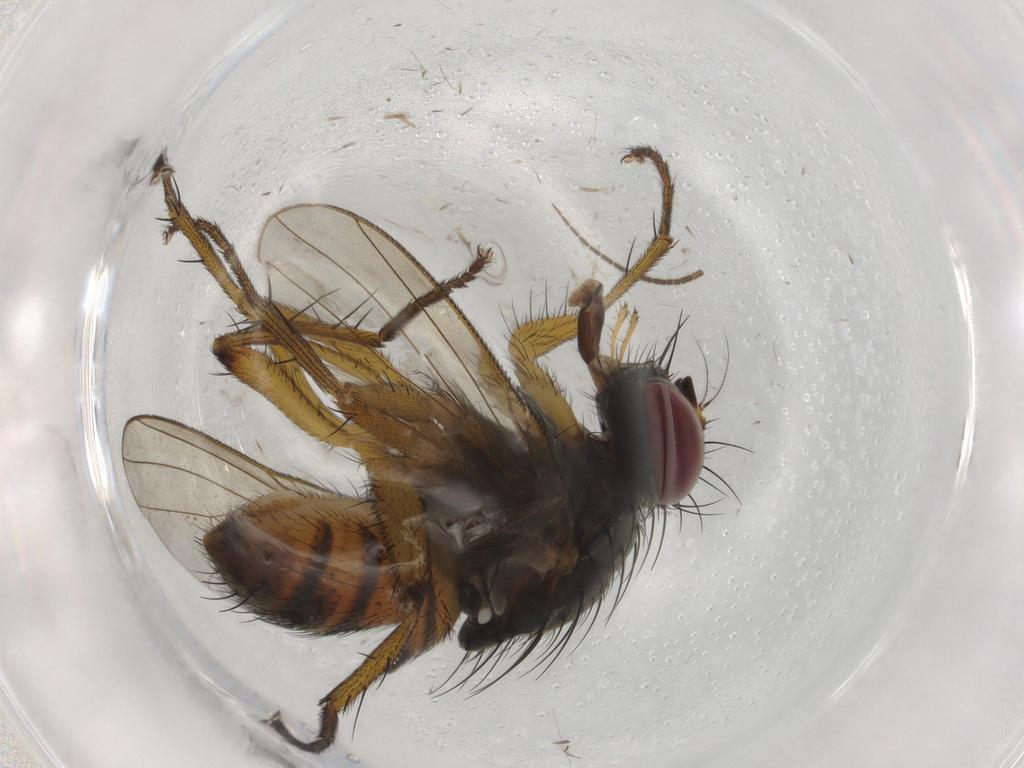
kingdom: Animalia
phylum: Arthropoda
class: Insecta
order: Diptera
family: Muscidae
